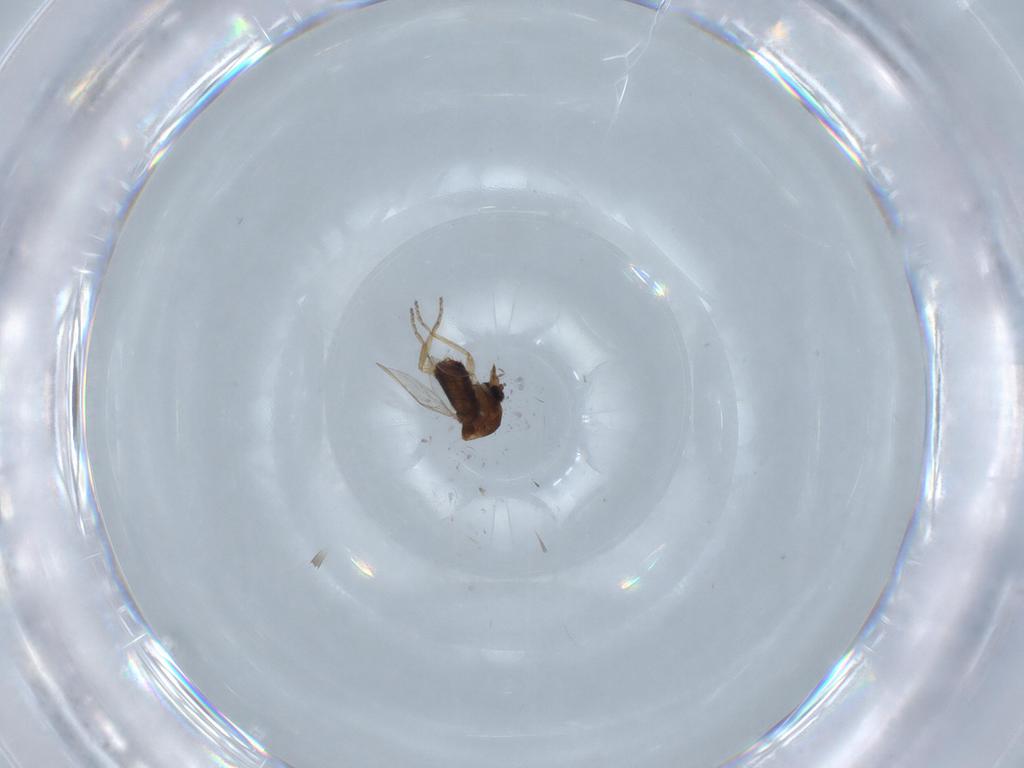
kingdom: Animalia
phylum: Arthropoda
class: Insecta
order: Diptera
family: Ceratopogonidae
